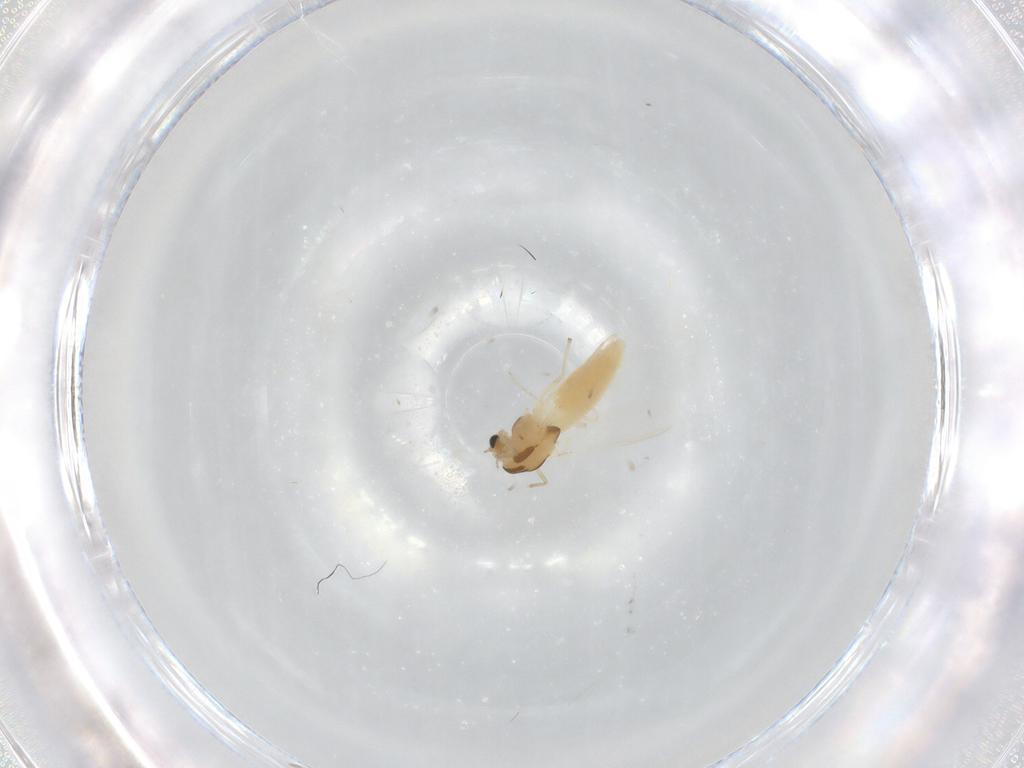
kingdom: Animalia
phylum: Arthropoda
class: Insecta
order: Diptera
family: Chironomidae
